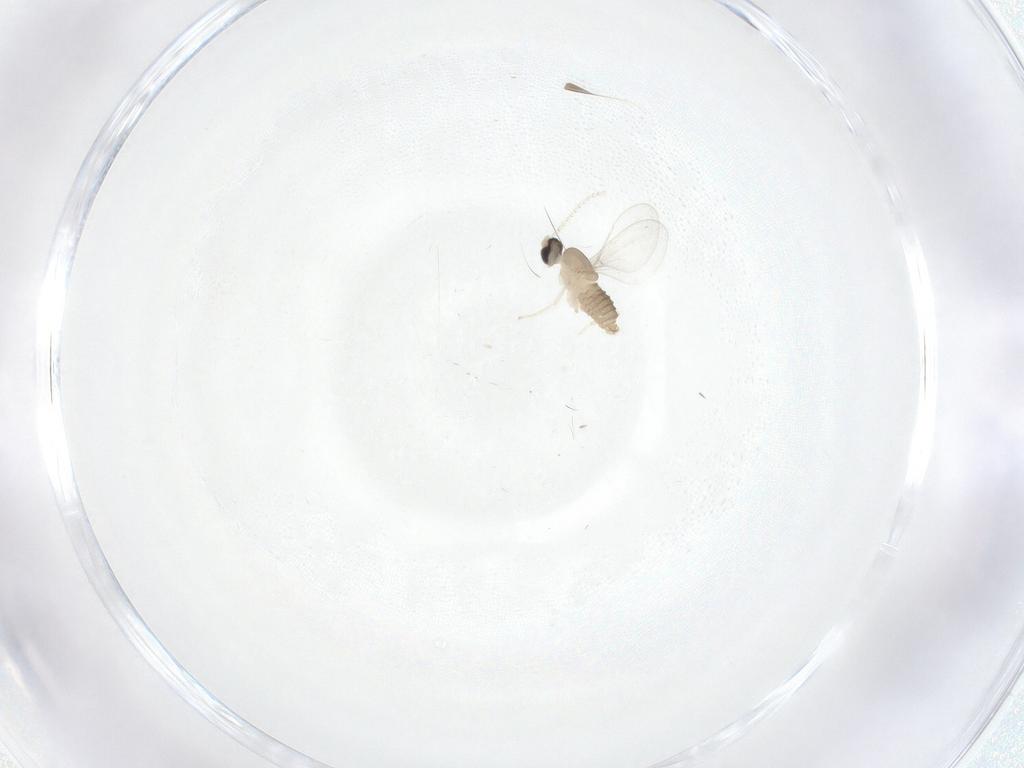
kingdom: Animalia
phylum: Arthropoda
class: Insecta
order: Diptera
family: Cecidomyiidae
